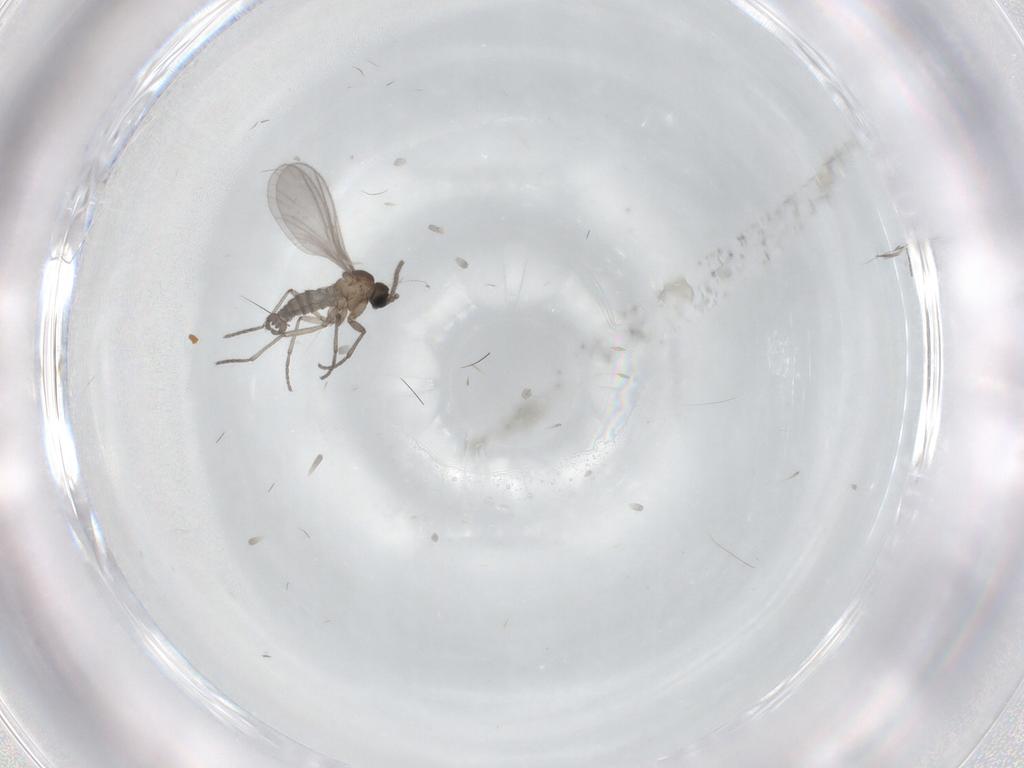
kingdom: Animalia
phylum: Arthropoda
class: Insecta
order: Diptera
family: Sciaridae
